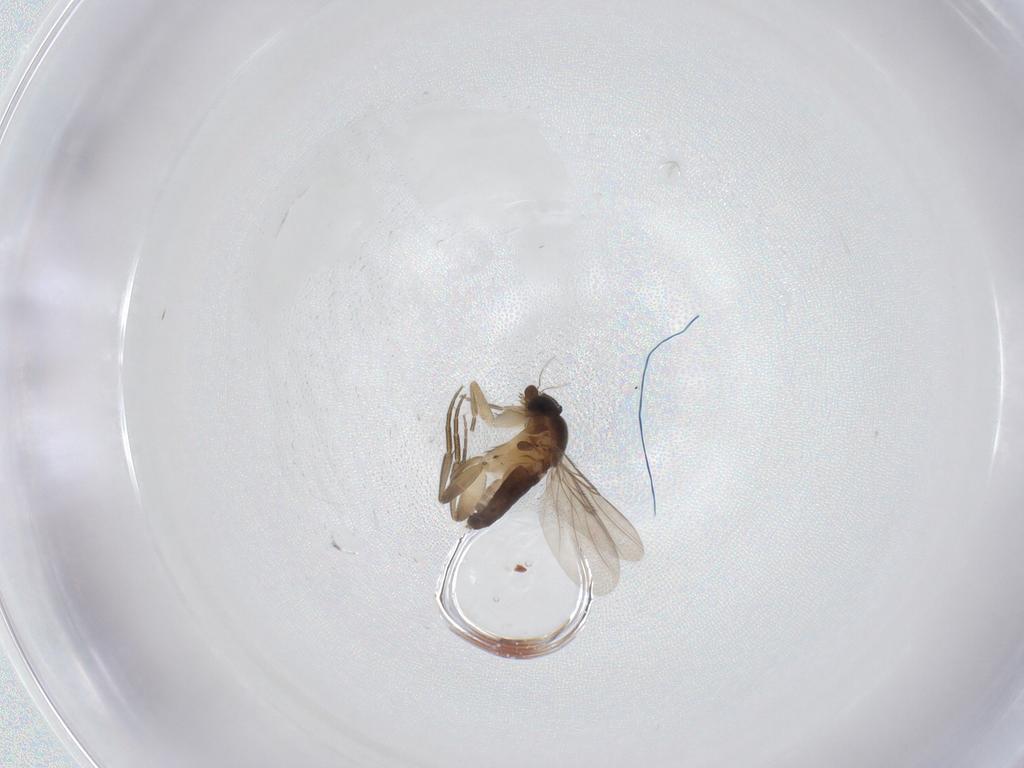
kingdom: Animalia
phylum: Arthropoda
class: Insecta
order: Diptera
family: Phoridae
